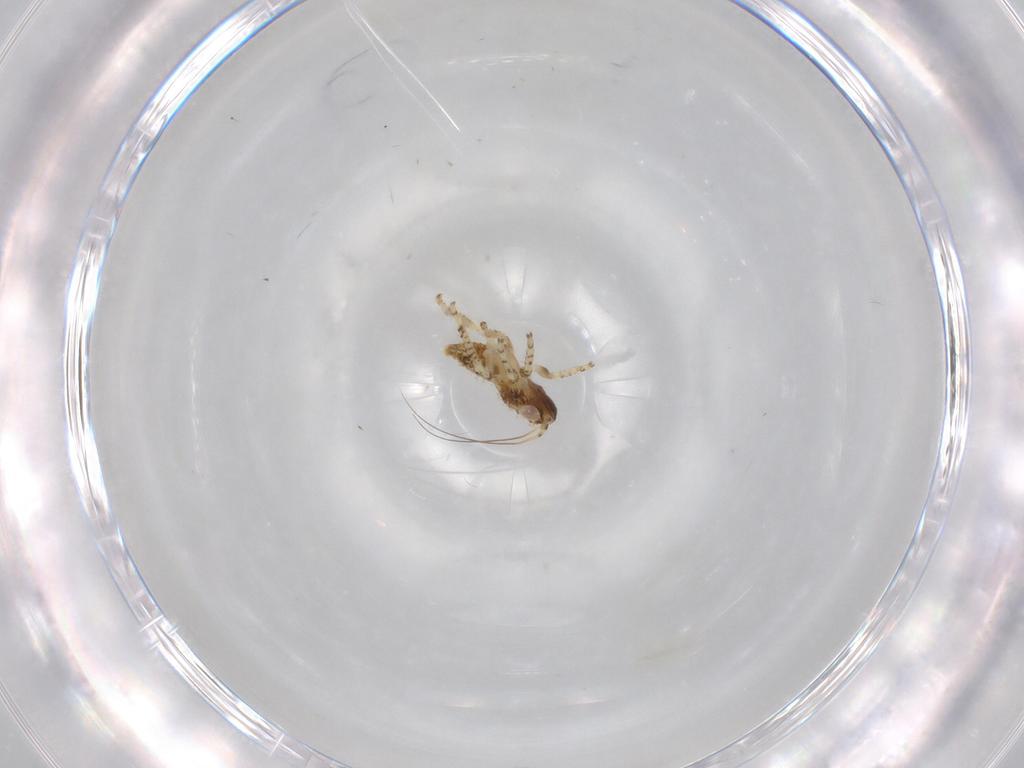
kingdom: Animalia
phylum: Arthropoda
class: Insecta
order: Hemiptera
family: Cicadellidae
